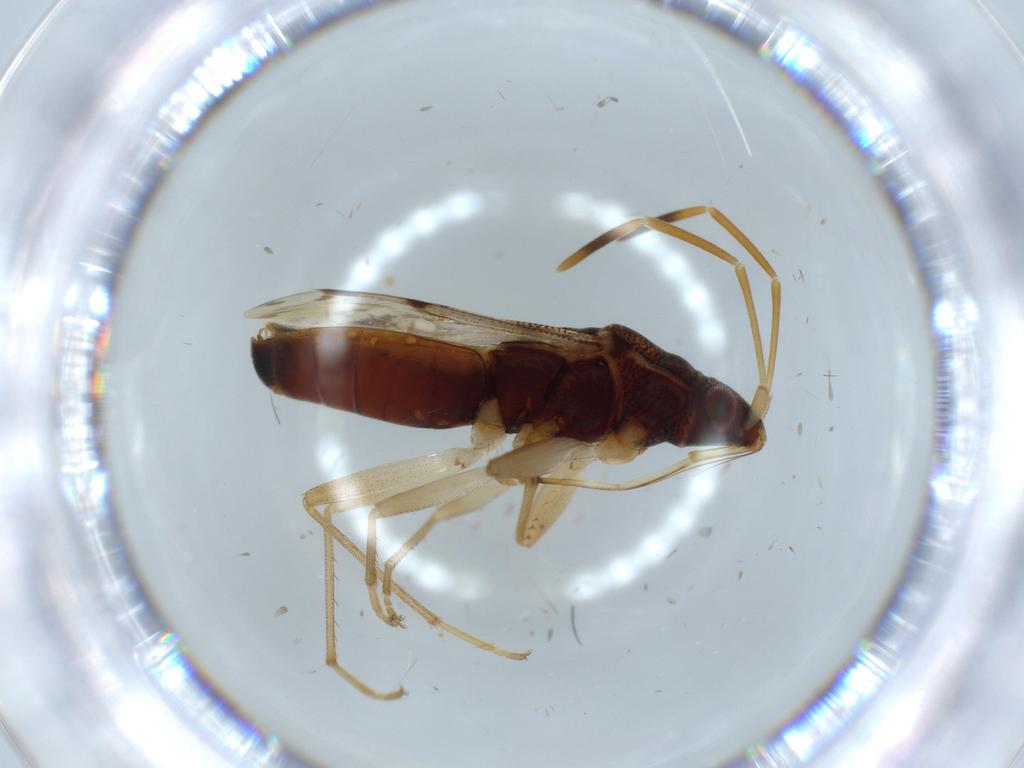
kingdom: Animalia
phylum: Arthropoda
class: Insecta
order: Hemiptera
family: Rhyparochromidae
